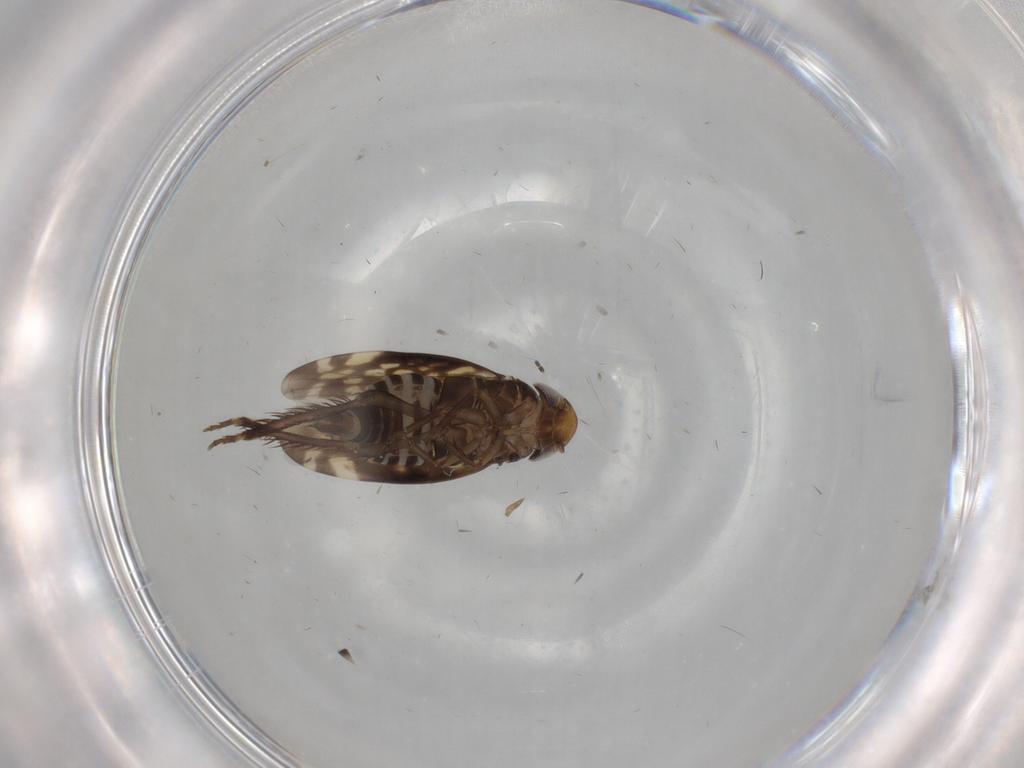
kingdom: Animalia
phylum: Arthropoda
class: Insecta
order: Hemiptera
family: Cicadellidae
